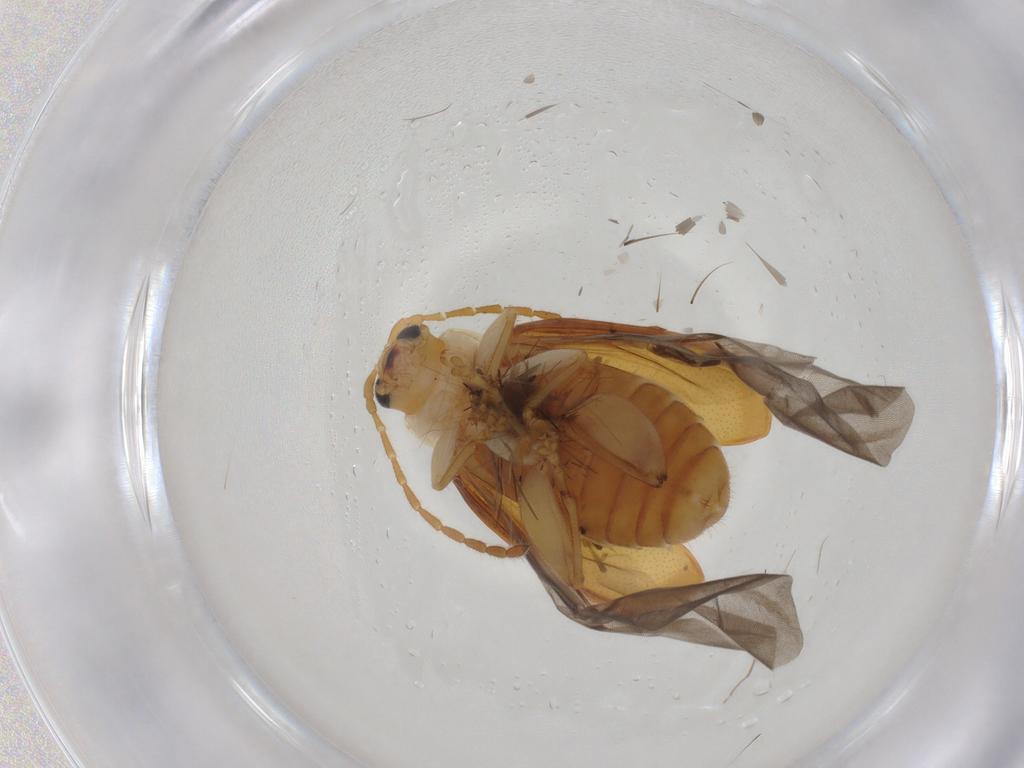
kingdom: Animalia
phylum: Arthropoda
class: Insecta
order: Coleoptera
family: Chrysomelidae
